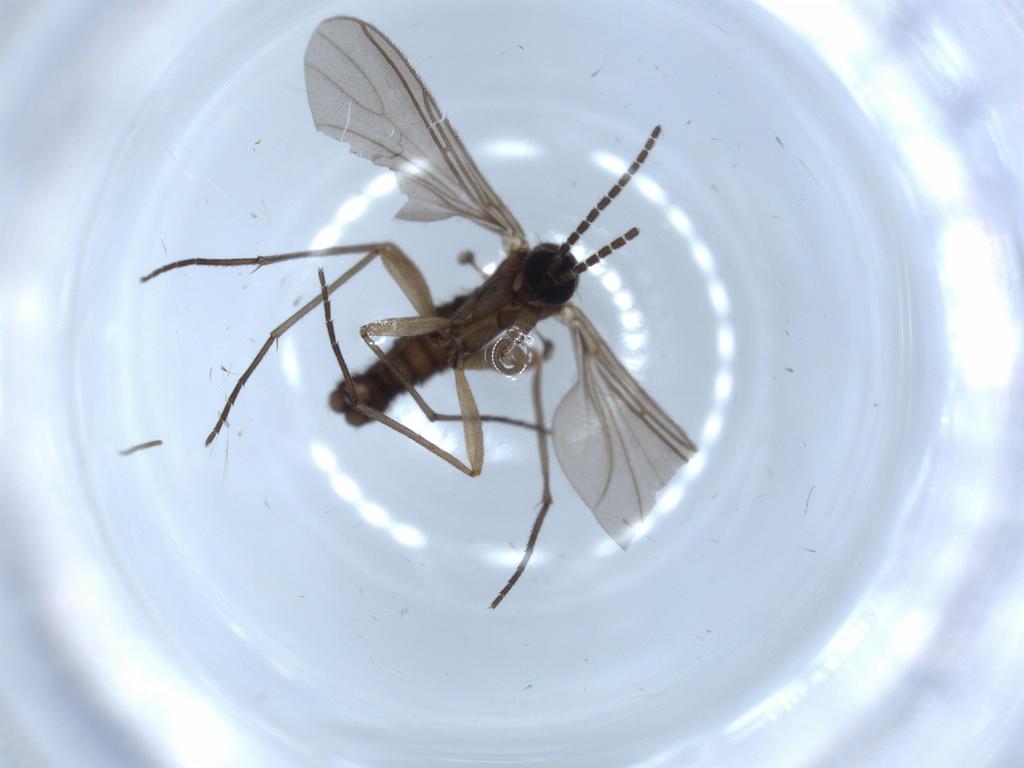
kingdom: Animalia
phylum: Arthropoda
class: Insecta
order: Diptera
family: Sciaridae
